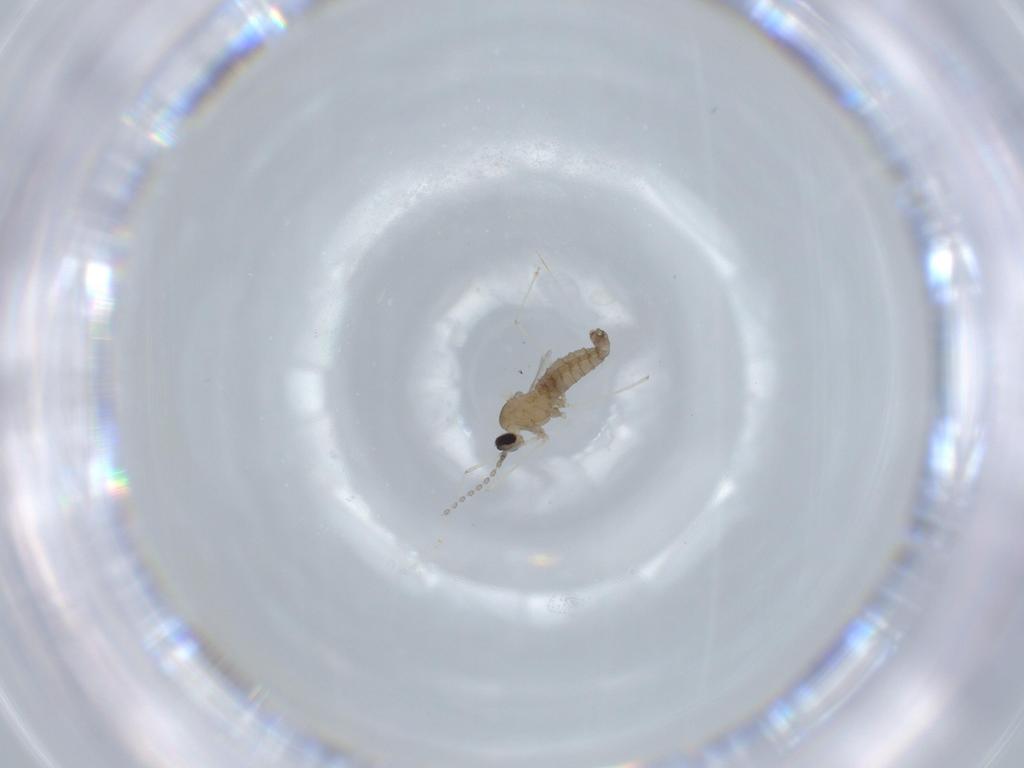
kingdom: Animalia
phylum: Arthropoda
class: Insecta
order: Diptera
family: Cecidomyiidae
